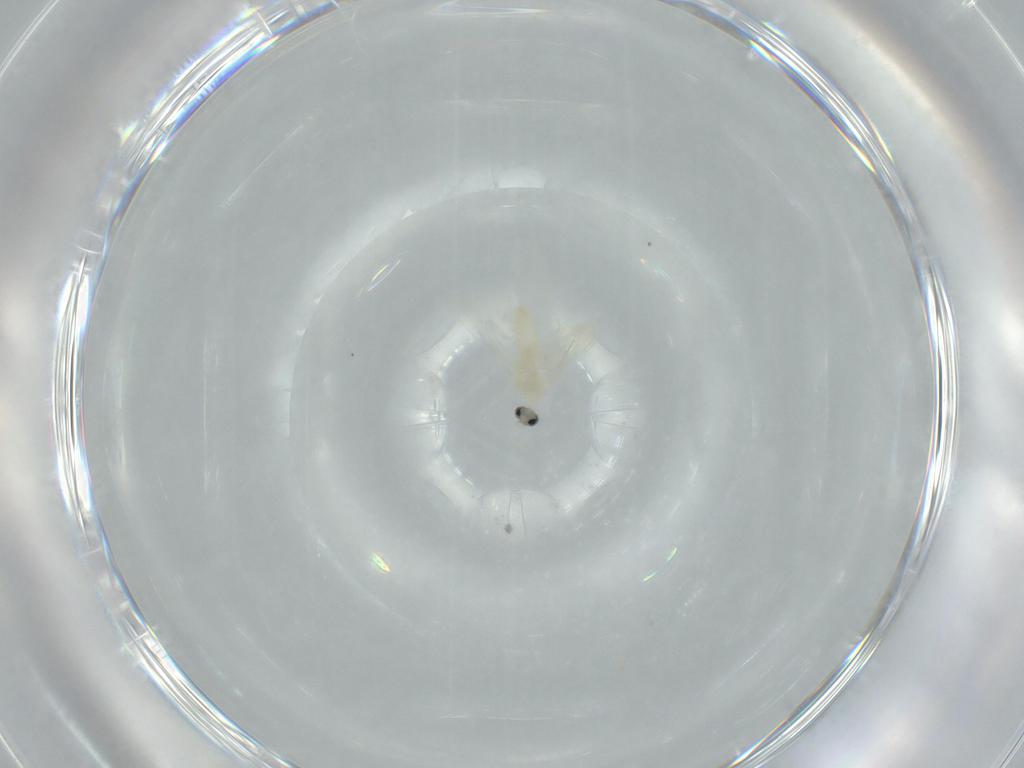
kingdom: Animalia
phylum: Arthropoda
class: Insecta
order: Diptera
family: Cecidomyiidae
